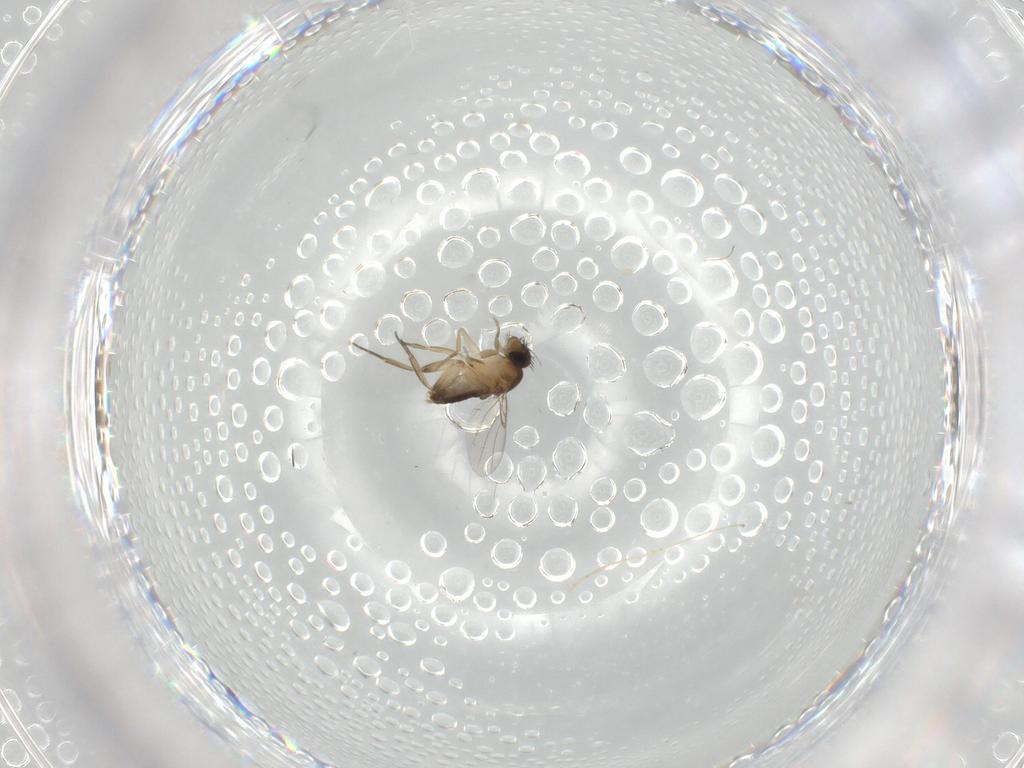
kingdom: Animalia
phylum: Arthropoda
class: Insecta
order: Diptera
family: Chironomidae
